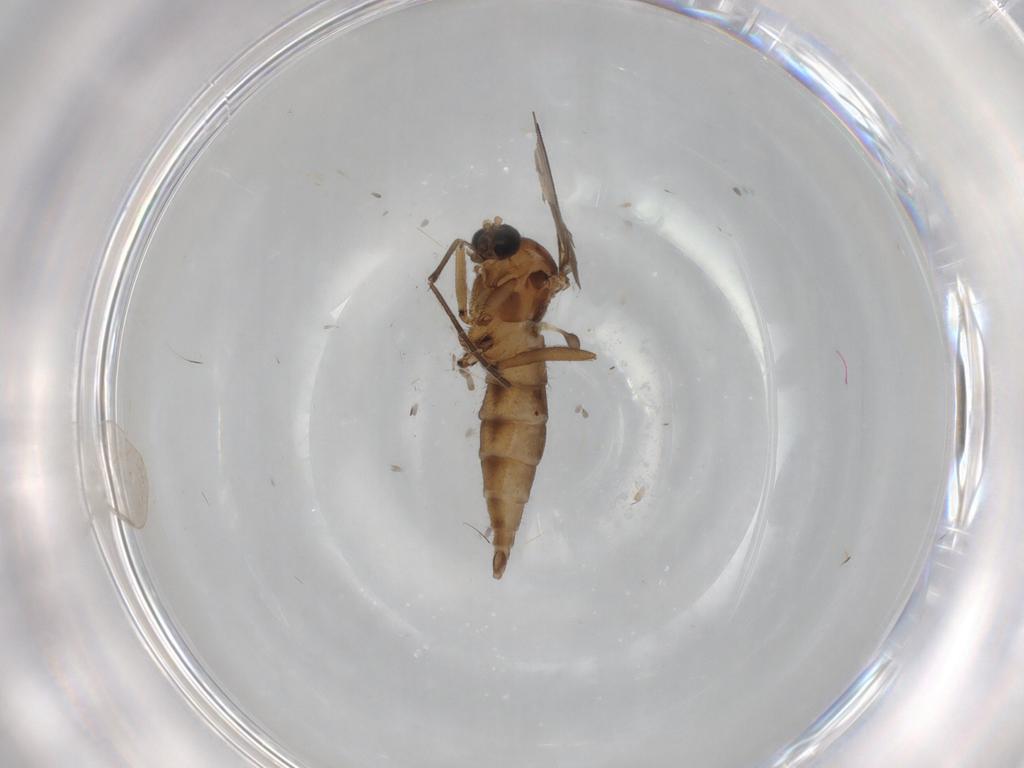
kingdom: Animalia
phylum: Arthropoda
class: Insecta
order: Diptera
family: Sciaridae
